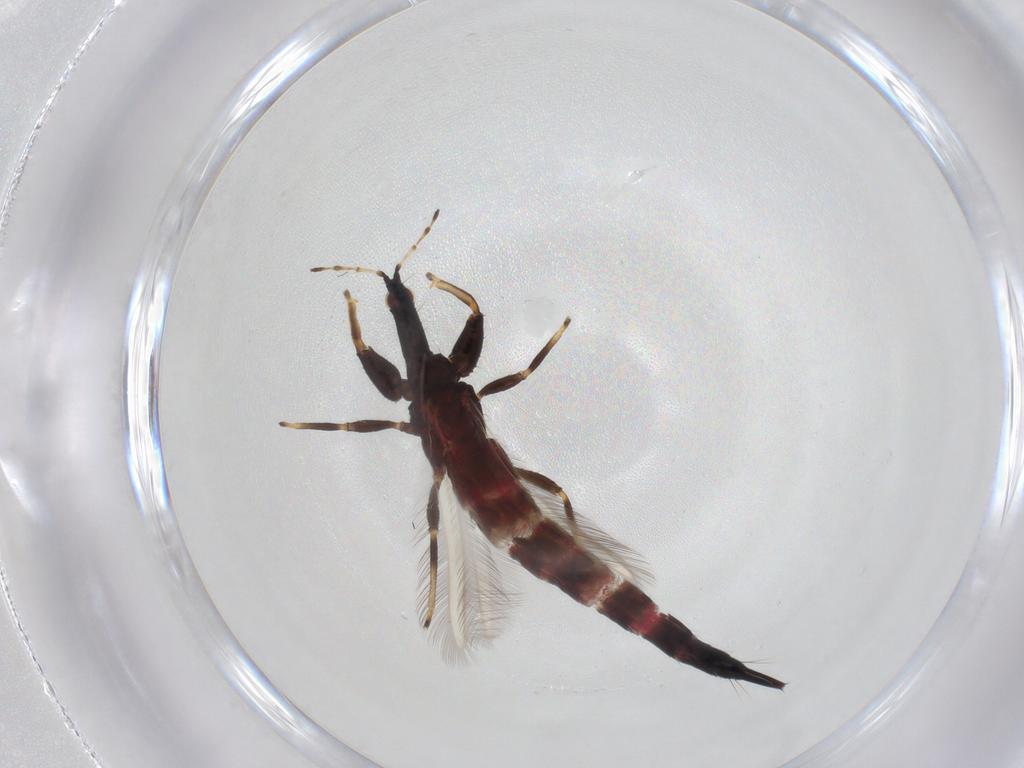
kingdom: Animalia
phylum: Arthropoda
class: Insecta
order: Thysanoptera
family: Phlaeothripidae
